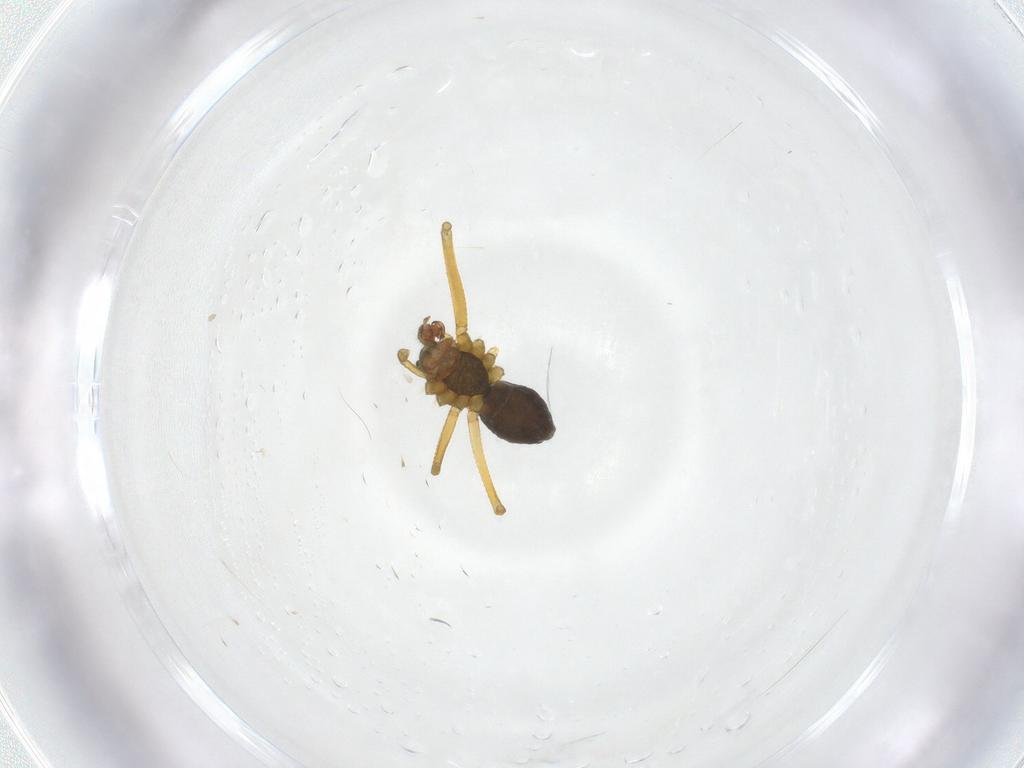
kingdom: Animalia
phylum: Arthropoda
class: Arachnida
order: Araneae
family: Linyphiidae
